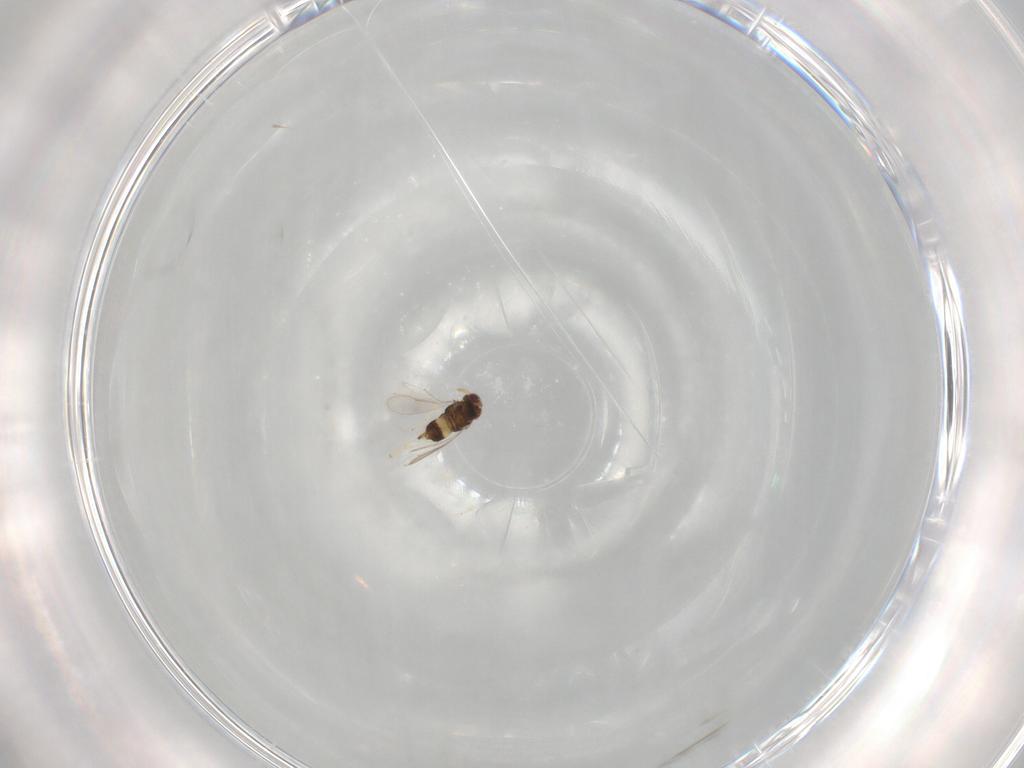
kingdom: Animalia
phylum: Arthropoda
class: Insecta
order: Hymenoptera
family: Aphelinidae
